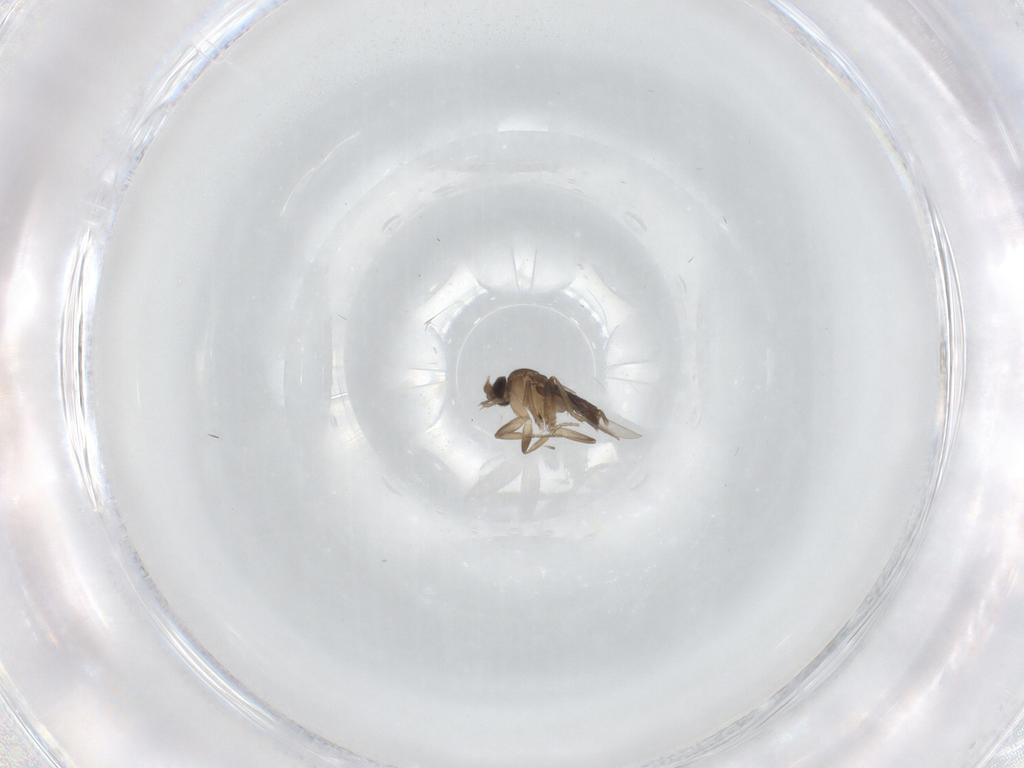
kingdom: Animalia
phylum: Arthropoda
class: Insecta
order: Diptera
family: Phoridae
